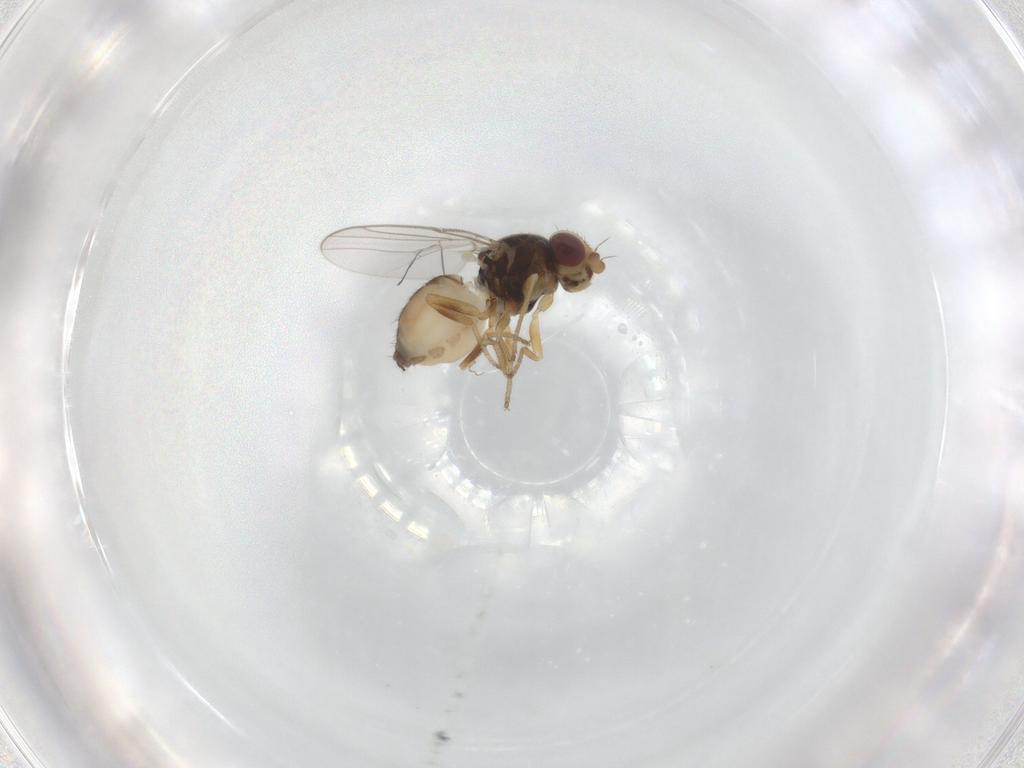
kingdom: Animalia
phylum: Arthropoda
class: Insecta
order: Diptera
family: Chloropidae
